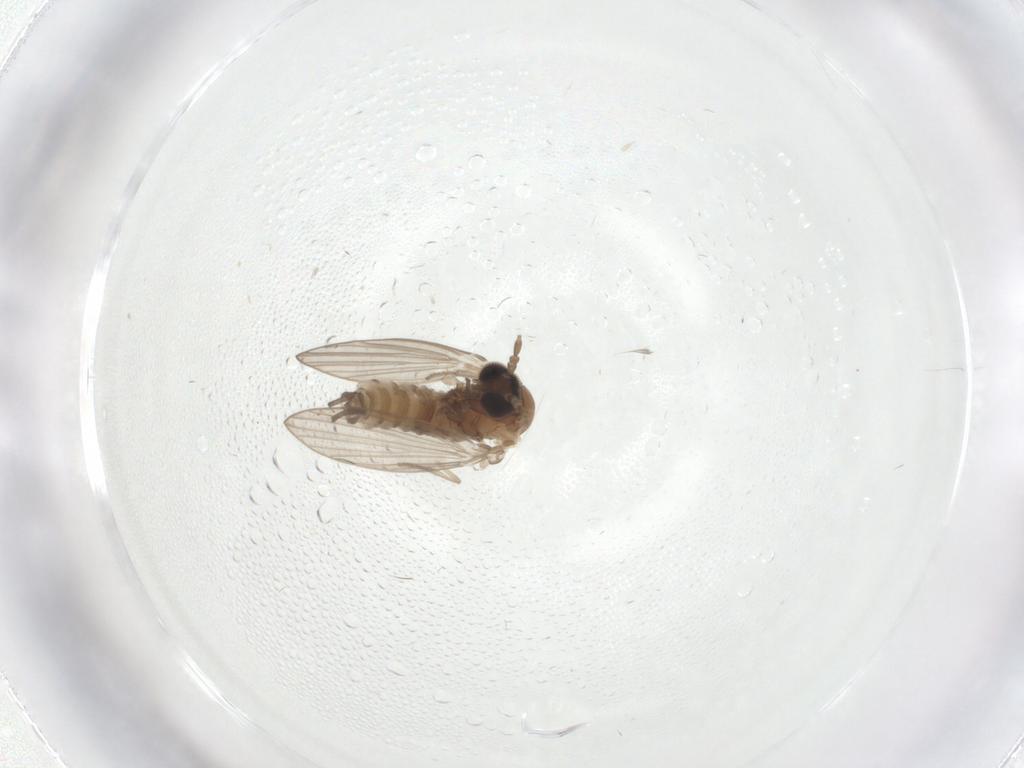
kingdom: Animalia
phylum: Arthropoda
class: Insecta
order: Diptera
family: Psychodidae
